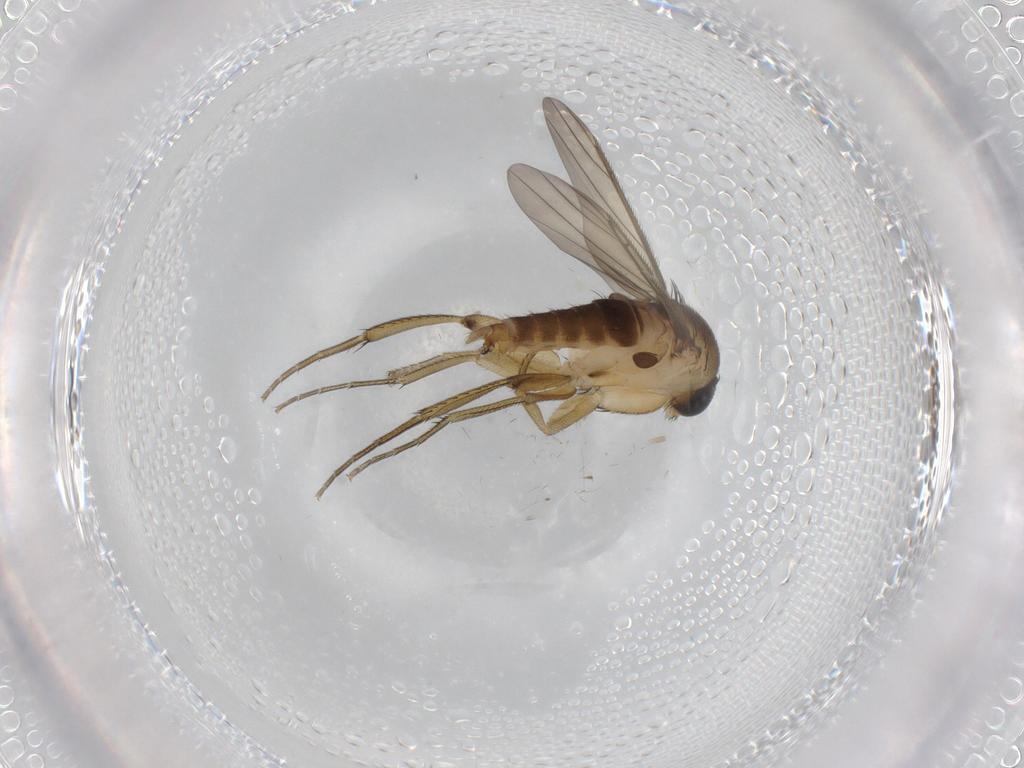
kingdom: Animalia
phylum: Arthropoda
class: Insecta
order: Diptera
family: Phoridae
